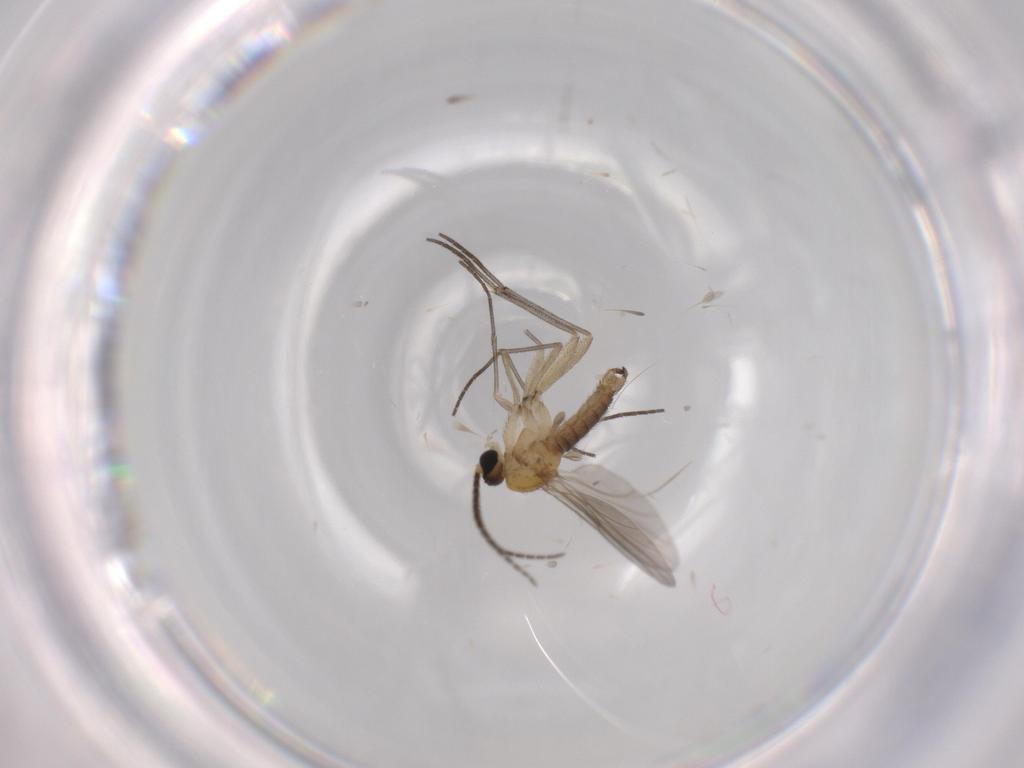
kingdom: Animalia
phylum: Arthropoda
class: Insecta
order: Diptera
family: Sciaridae
